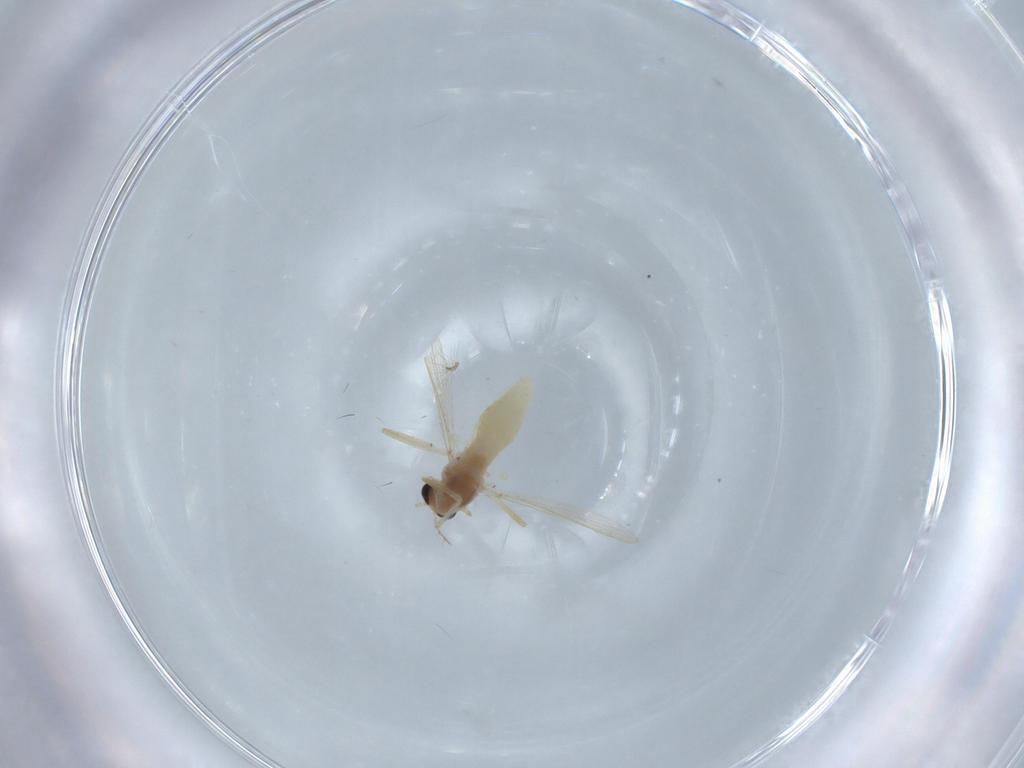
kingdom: Animalia
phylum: Arthropoda
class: Insecta
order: Diptera
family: Chironomidae
